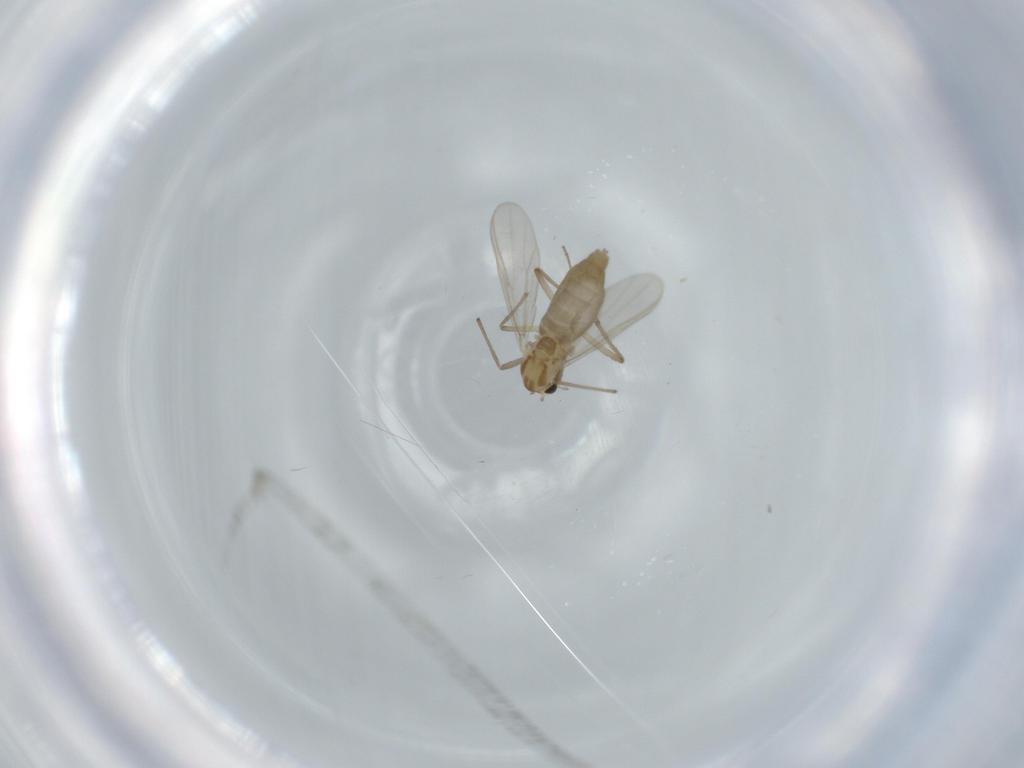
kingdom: Animalia
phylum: Arthropoda
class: Insecta
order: Diptera
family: Chironomidae
